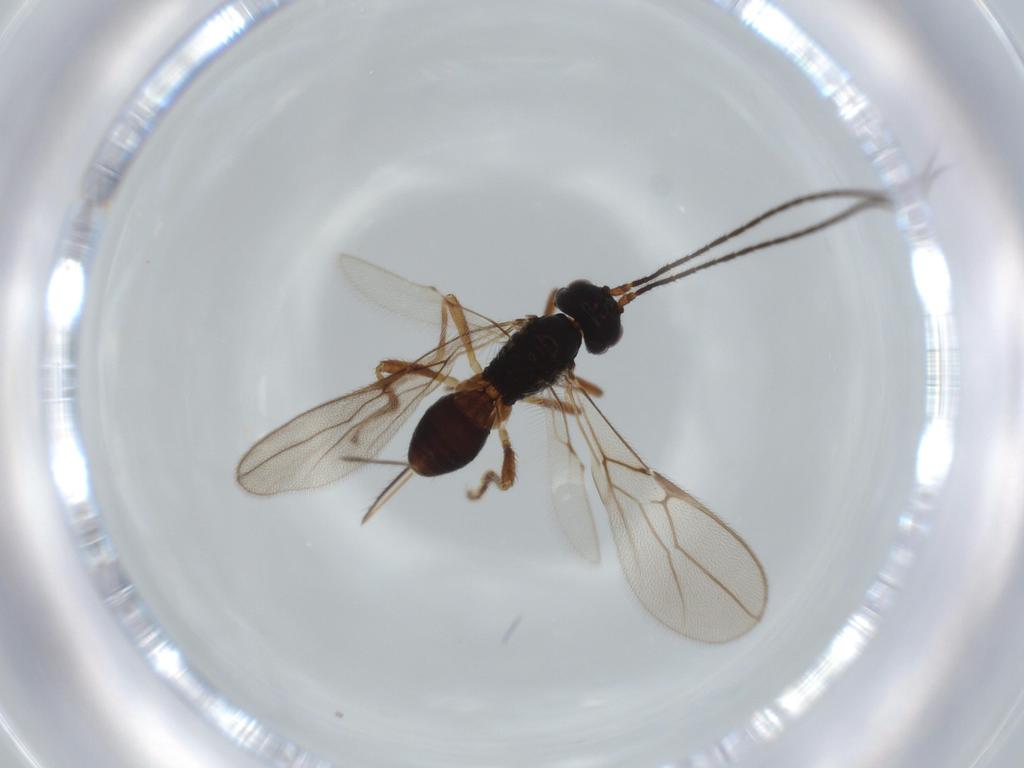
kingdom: Animalia
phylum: Arthropoda
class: Insecta
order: Hymenoptera
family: Braconidae
